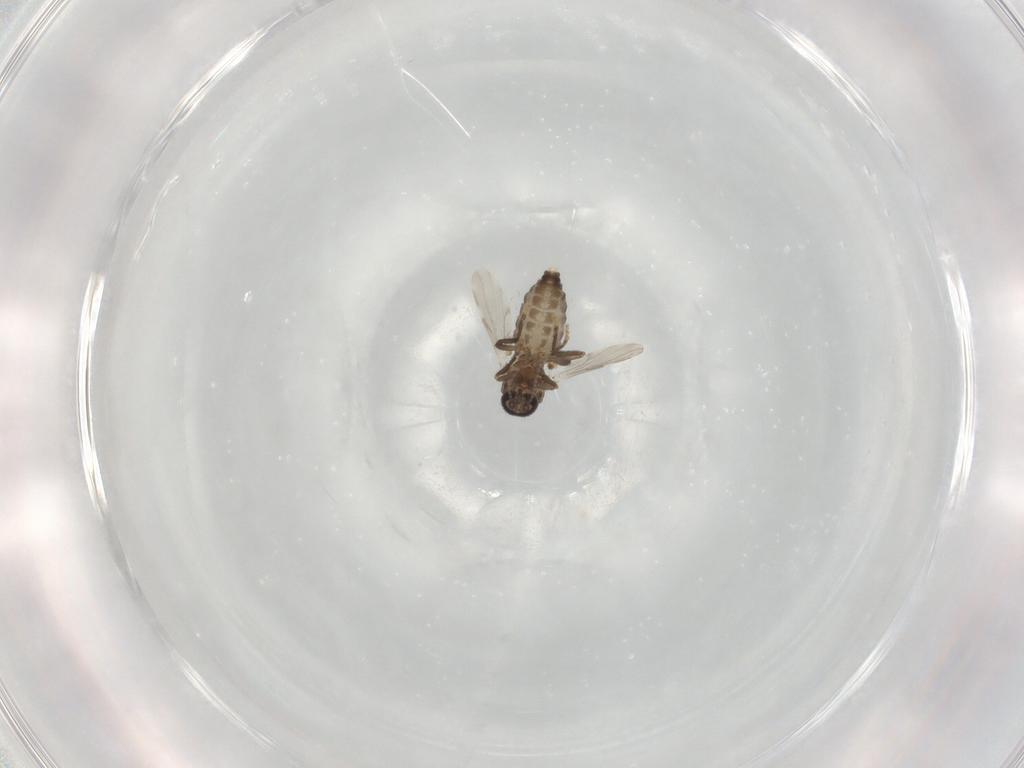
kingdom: Animalia
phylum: Arthropoda
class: Insecta
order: Diptera
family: Ceratopogonidae
